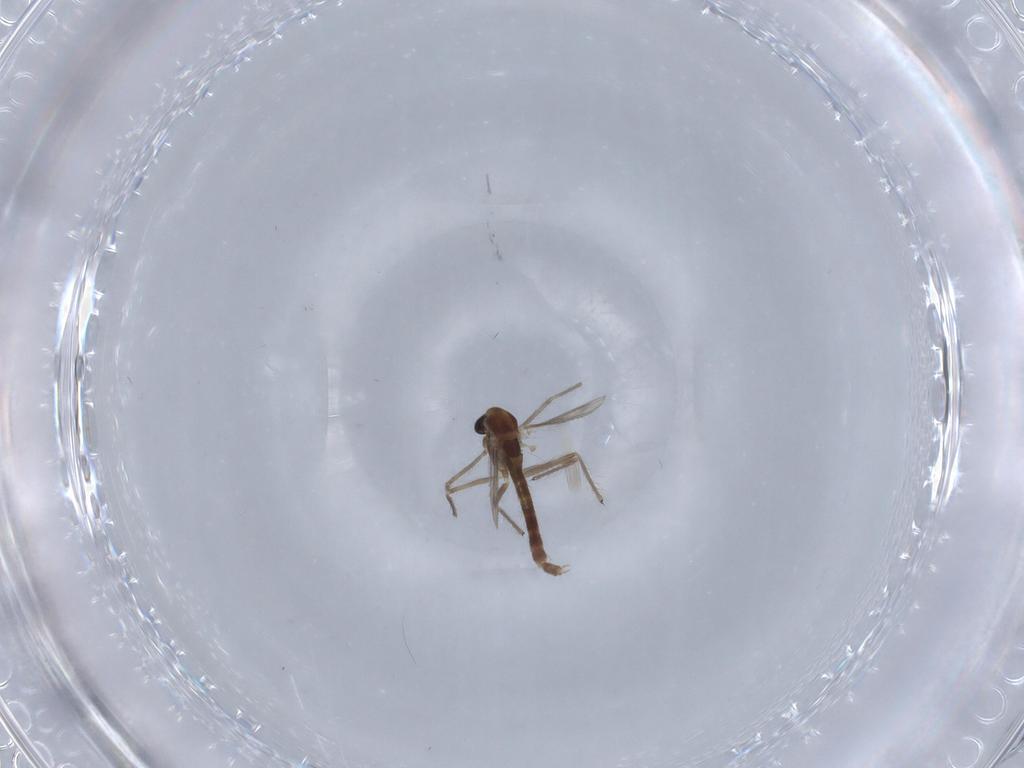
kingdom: Animalia
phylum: Arthropoda
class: Insecta
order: Diptera
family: Chironomidae
